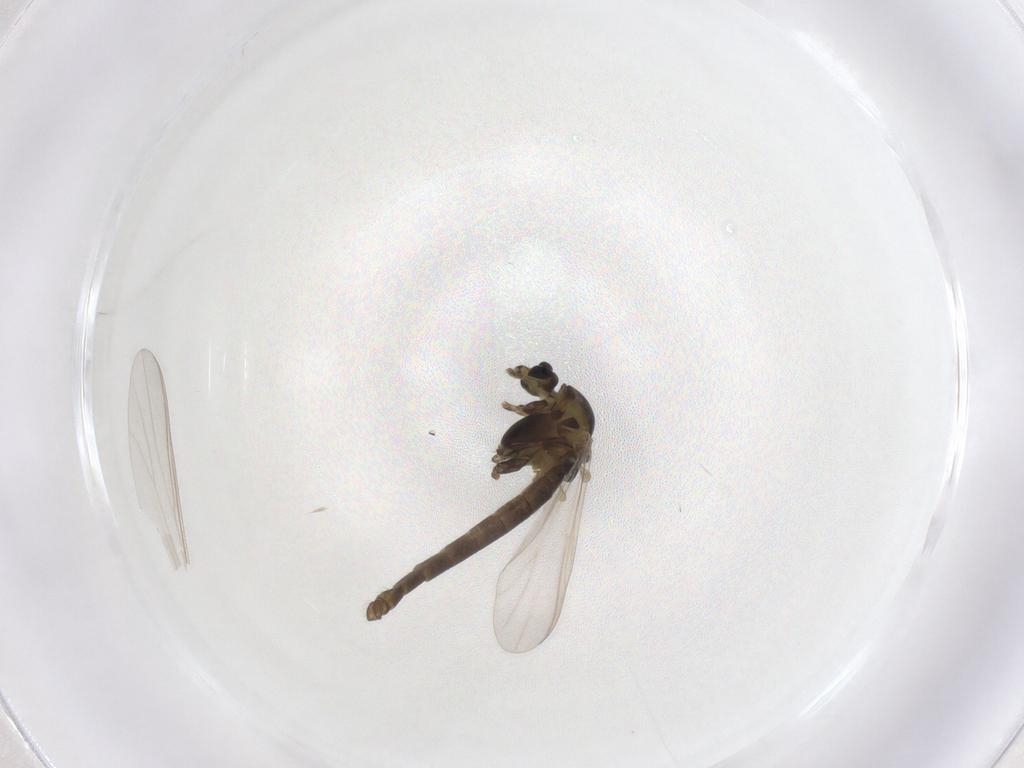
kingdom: Animalia
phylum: Arthropoda
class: Insecta
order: Diptera
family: Chironomidae
